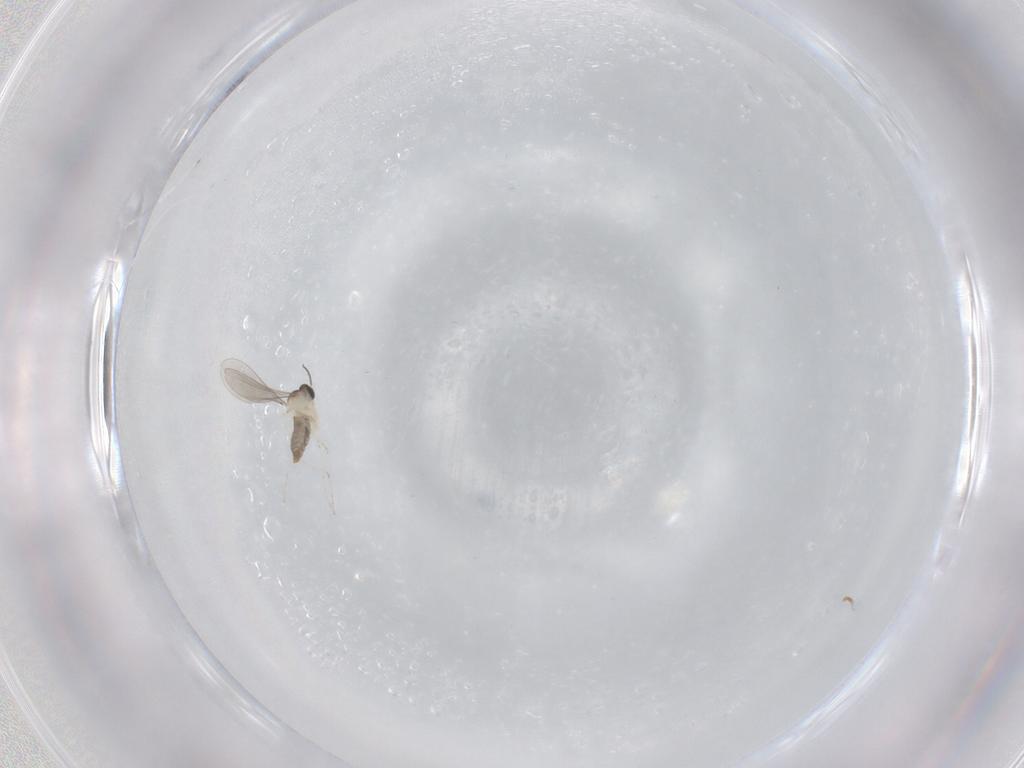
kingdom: Animalia
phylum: Arthropoda
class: Insecta
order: Diptera
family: Cecidomyiidae
